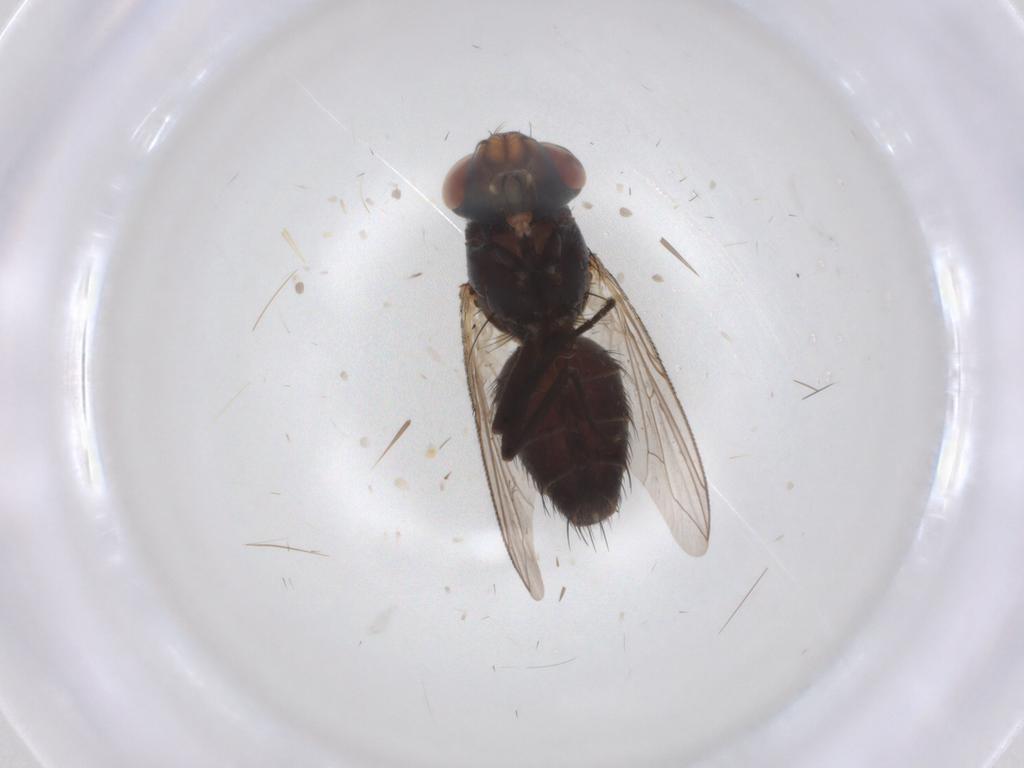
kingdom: Animalia
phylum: Arthropoda
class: Insecta
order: Diptera
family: Sarcophagidae
